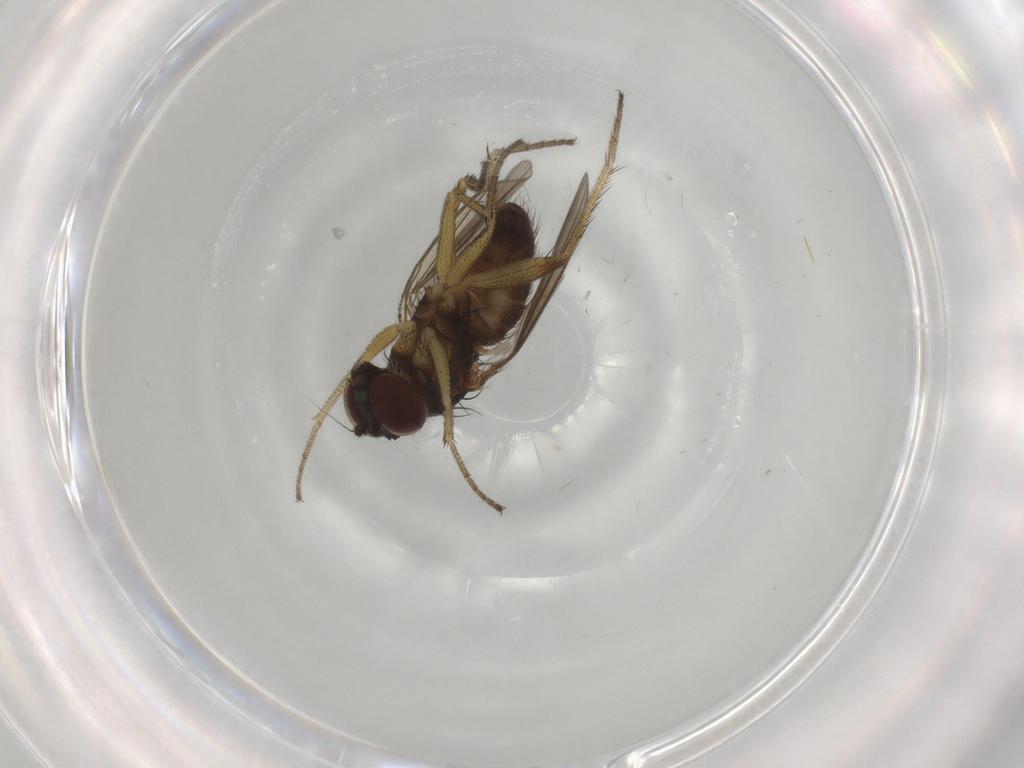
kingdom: Animalia
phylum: Arthropoda
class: Insecta
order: Diptera
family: Dolichopodidae
